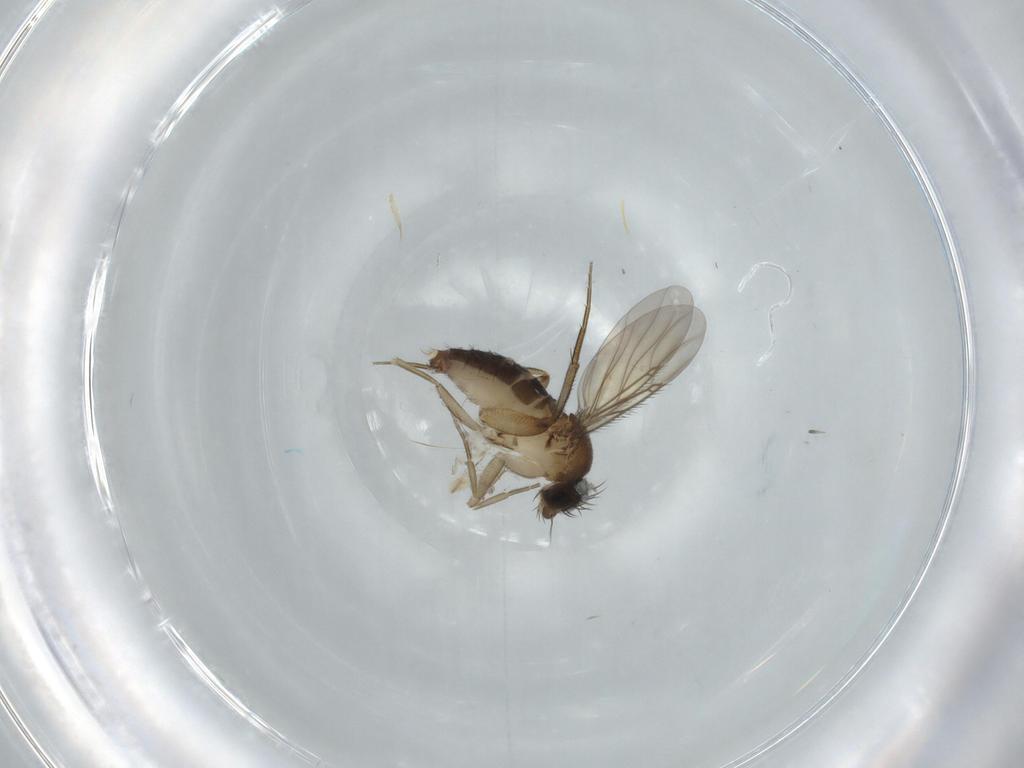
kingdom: Animalia
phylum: Arthropoda
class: Insecta
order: Diptera
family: Phoridae
